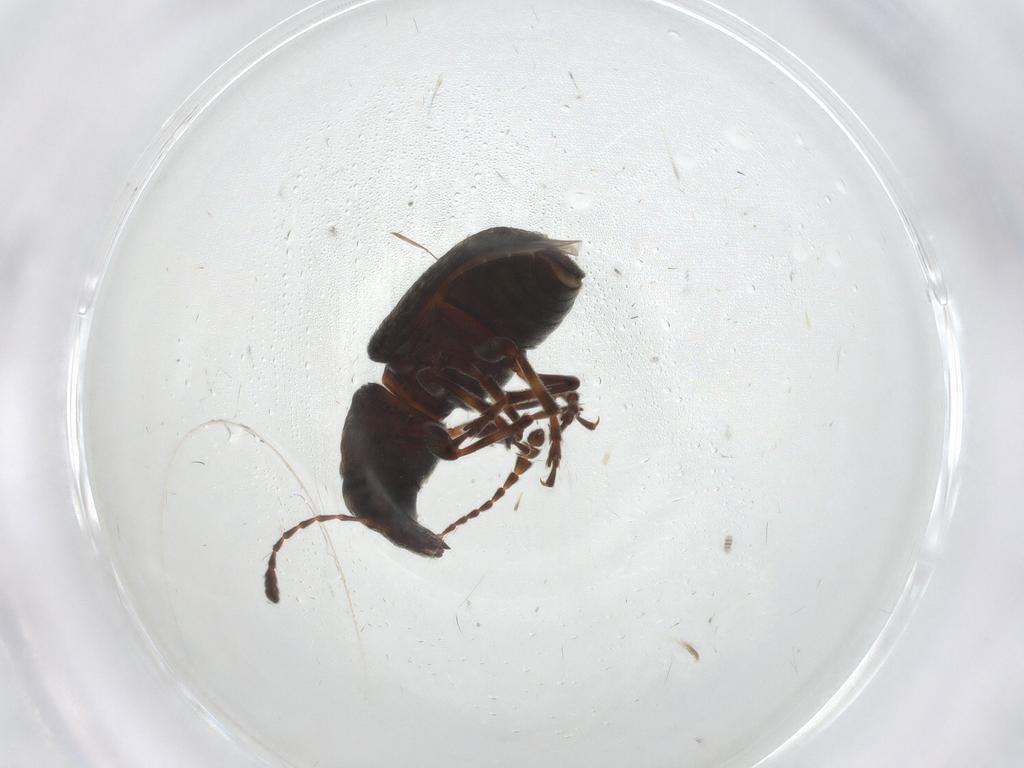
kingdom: Animalia
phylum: Arthropoda
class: Insecta
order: Coleoptera
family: Anthribidae
